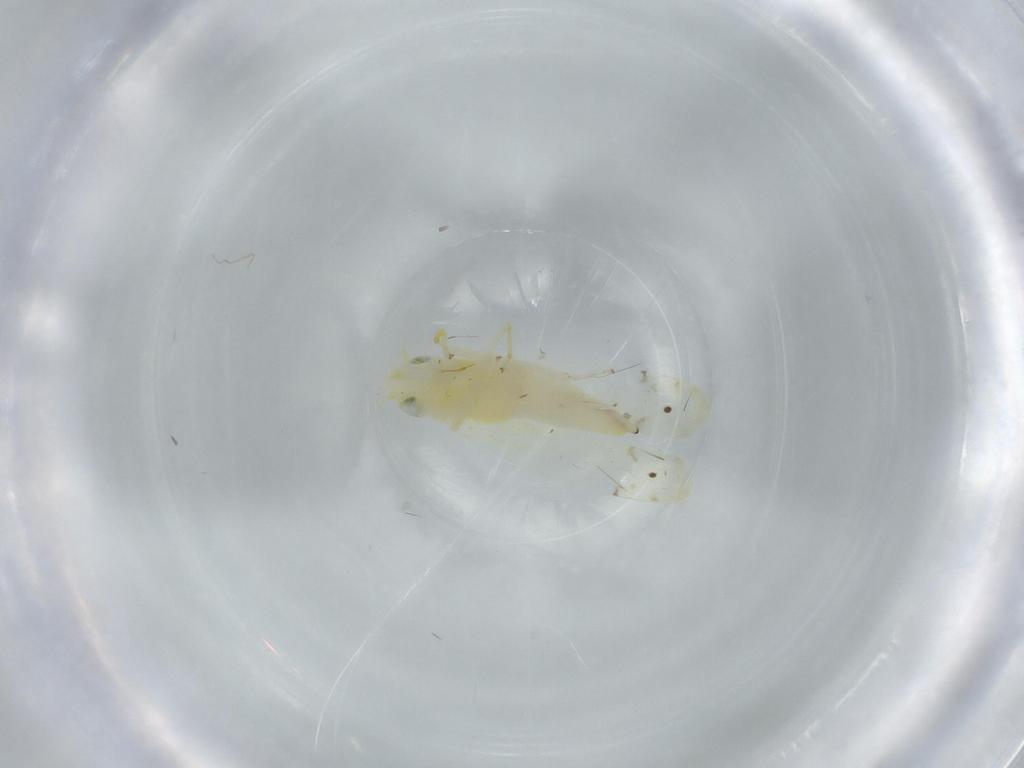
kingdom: Animalia
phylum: Arthropoda
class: Insecta
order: Hemiptera
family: Cicadellidae
